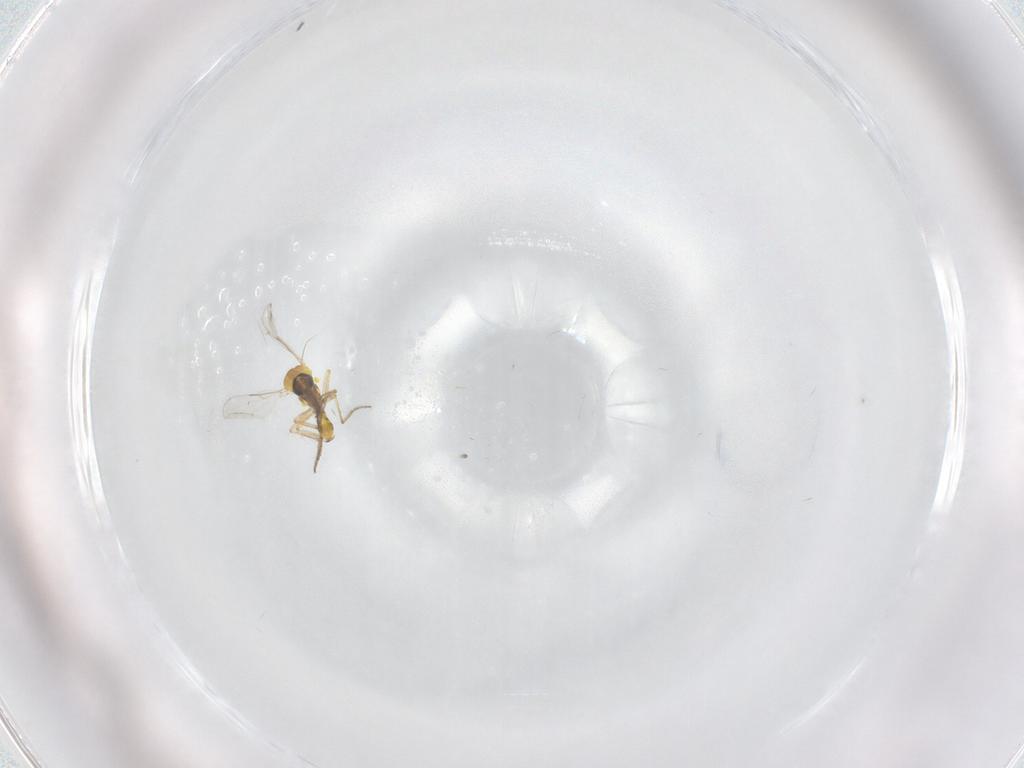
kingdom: Animalia
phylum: Arthropoda
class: Insecta
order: Diptera
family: Ceratopogonidae
